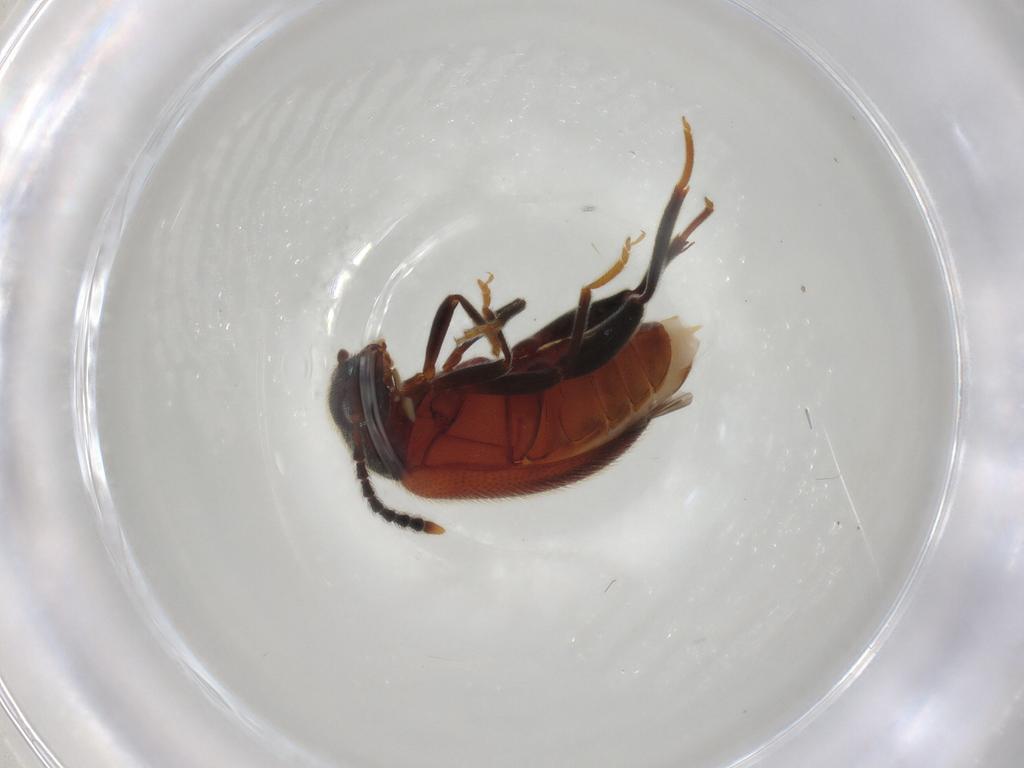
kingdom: Animalia
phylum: Arthropoda
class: Insecta
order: Coleoptera
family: Aderidae
